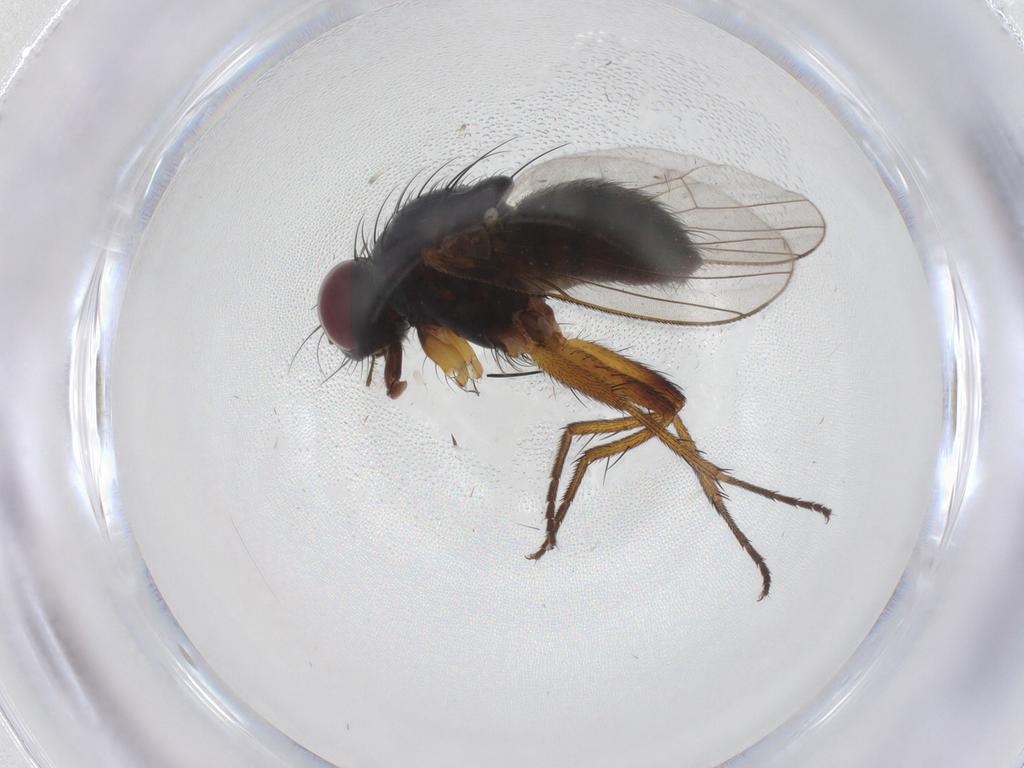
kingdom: Animalia
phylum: Arthropoda
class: Insecta
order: Diptera
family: Muscidae
